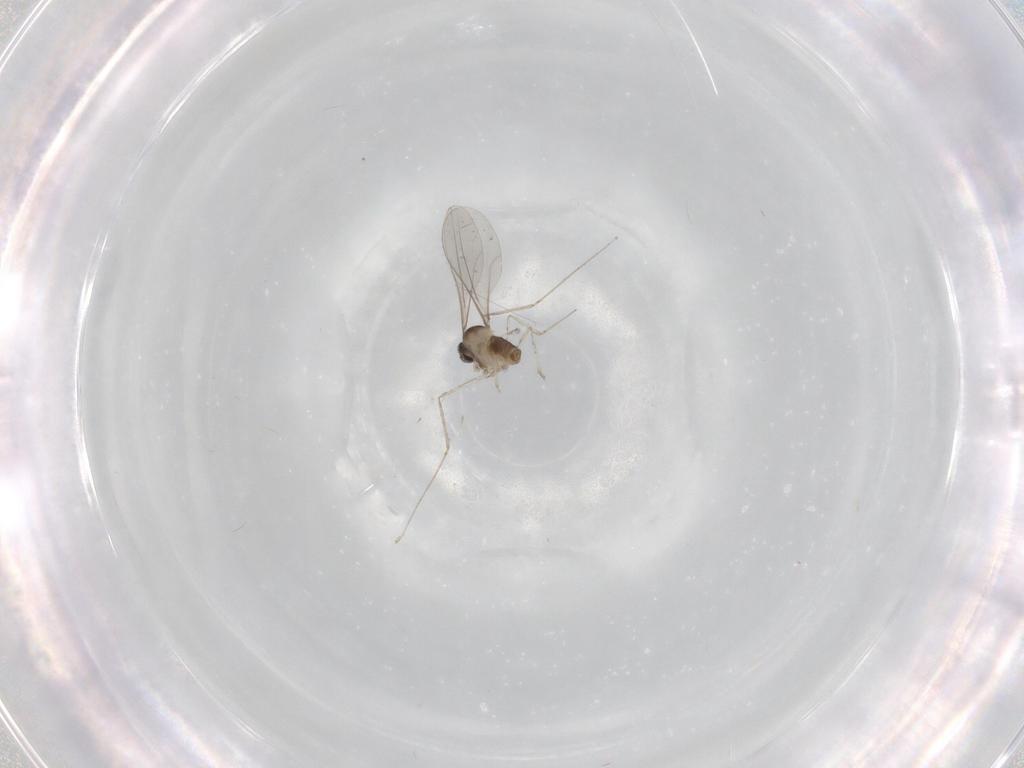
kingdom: Animalia
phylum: Arthropoda
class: Insecta
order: Diptera
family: Cecidomyiidae
